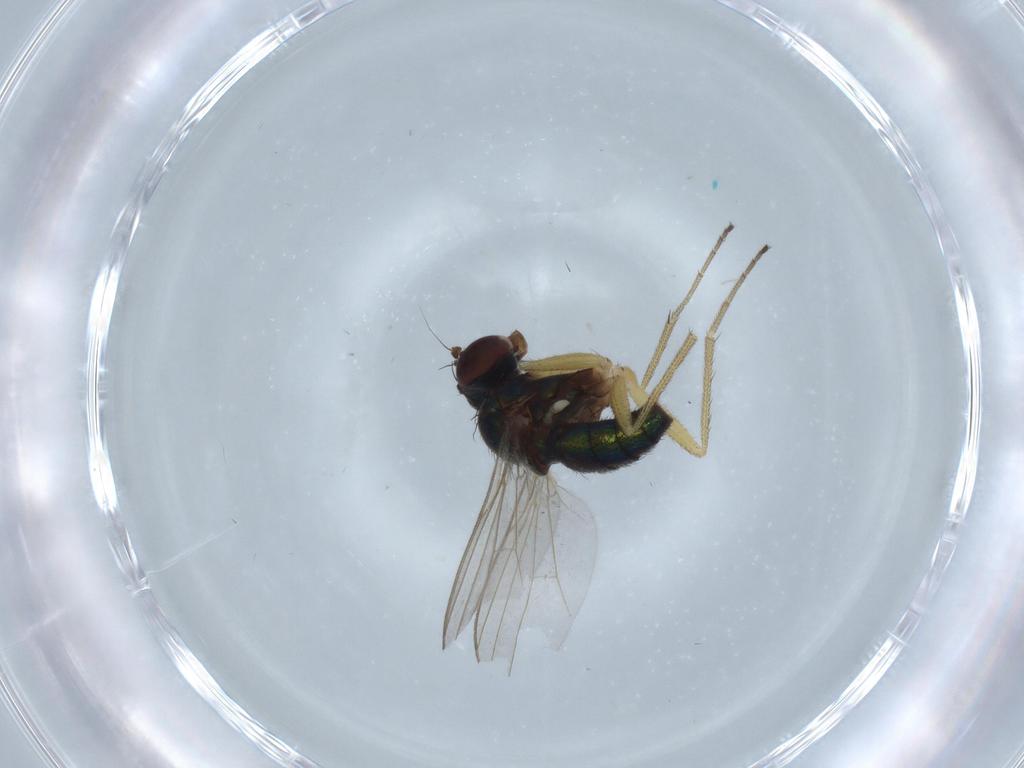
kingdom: Animalia
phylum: Arthropoda
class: Insecta
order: Diptera
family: Dolichopodidae
